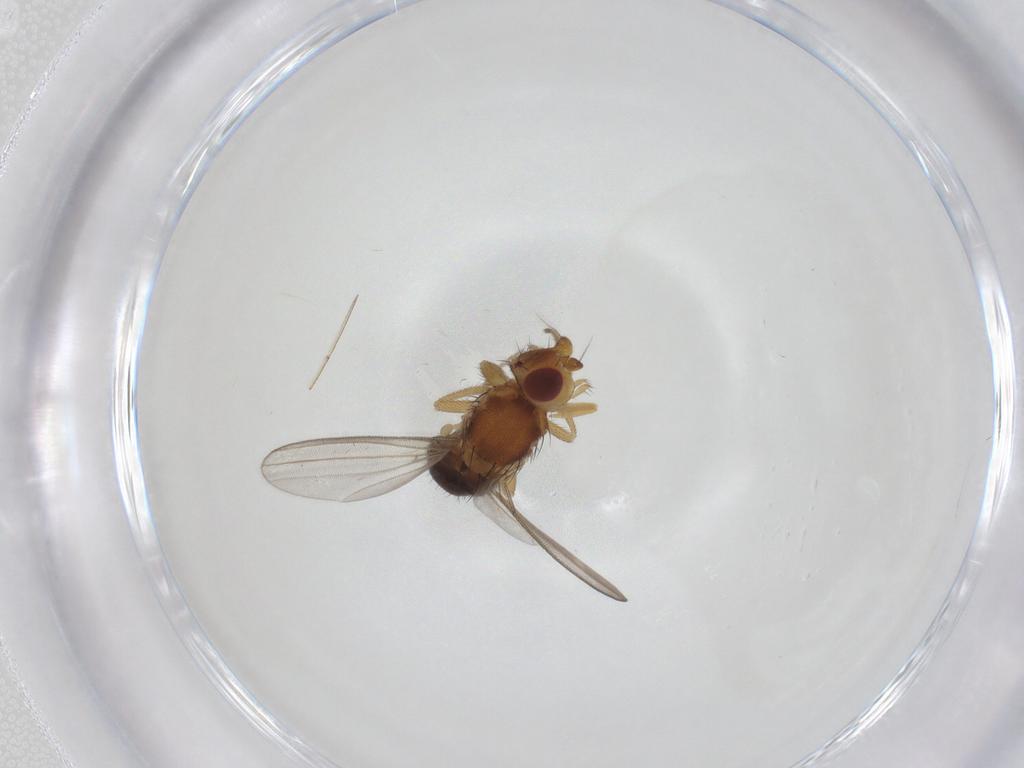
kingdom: Animalia
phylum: Arthropoda
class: Insecta
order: Diptera
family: Milichiidae
